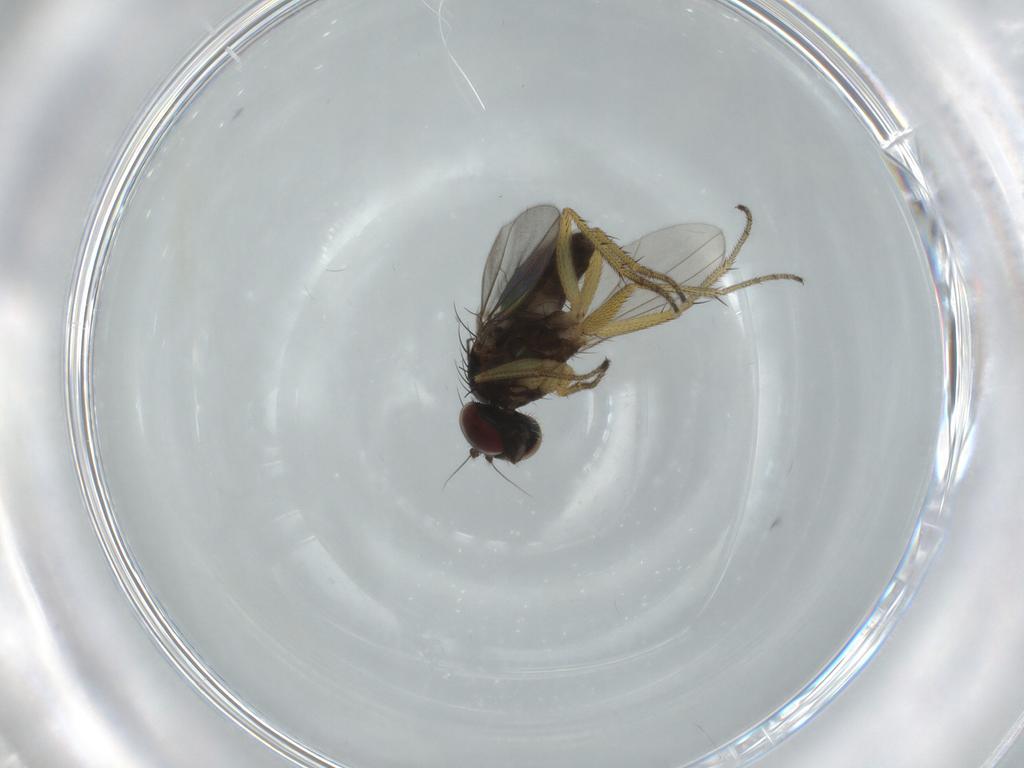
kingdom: Animalia
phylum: Arthropoda
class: Insecta
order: Diptera
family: Dolichopodidae
